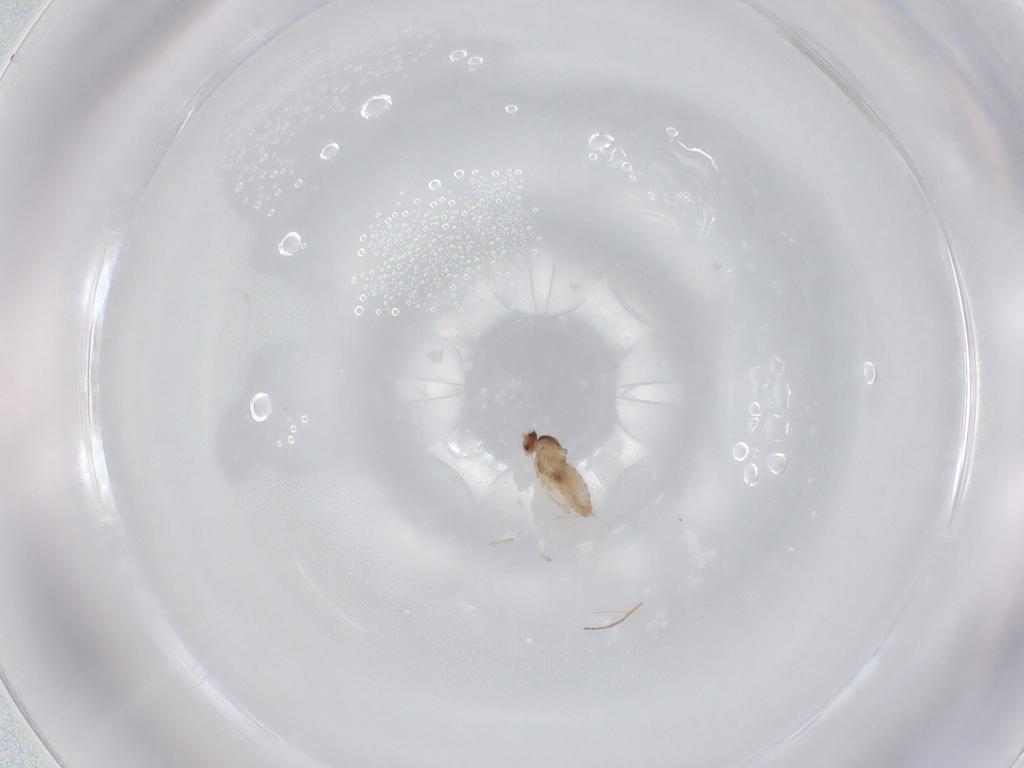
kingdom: Animalia
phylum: Arthropoda
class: Insecta
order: Diptera
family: Cecidomyiidae
